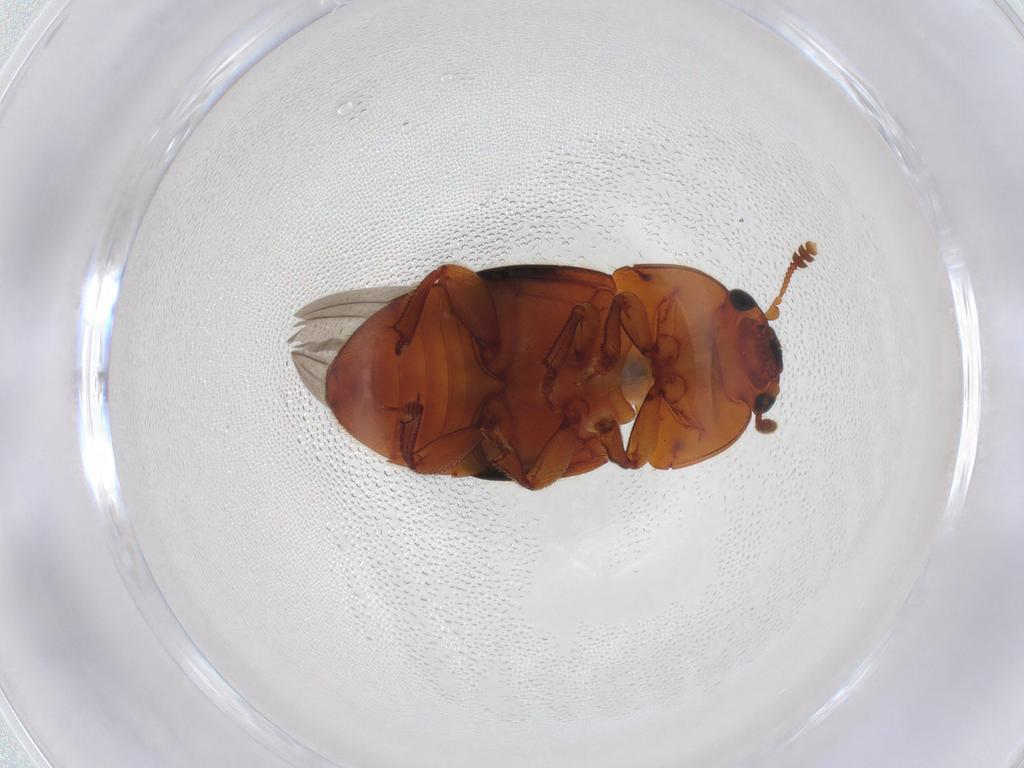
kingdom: Animalia
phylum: Arthropoda
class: Insecta
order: Coleoptera
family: Nitidulidae
